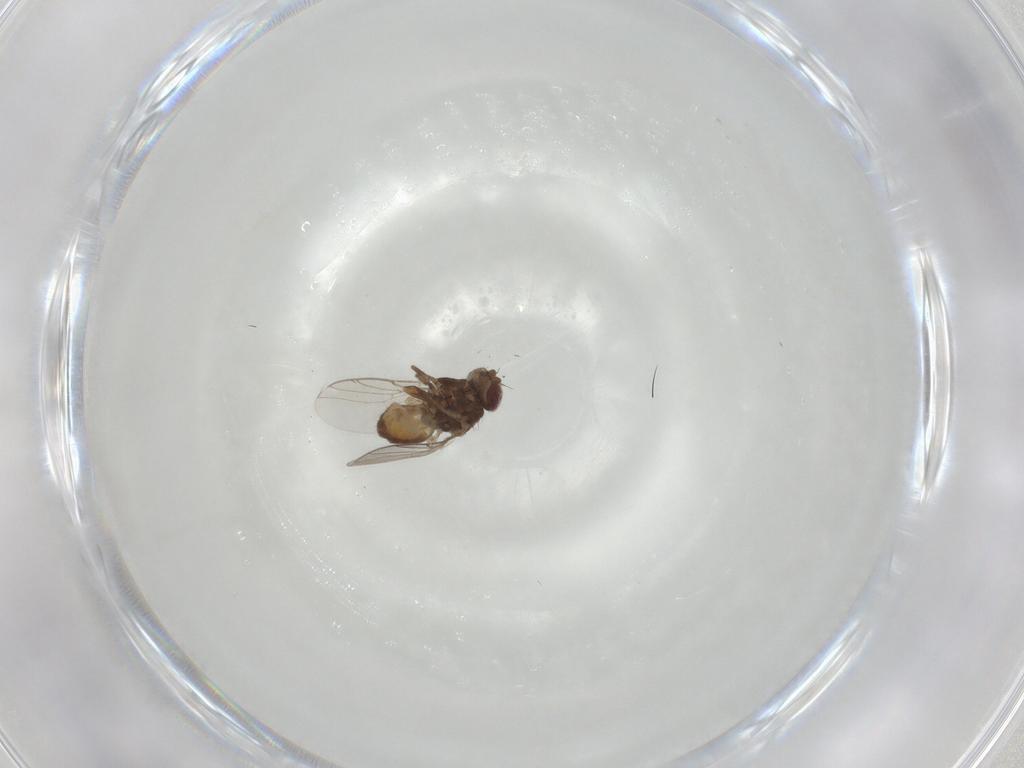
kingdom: Animalia
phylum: Arthropoda
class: Insecta
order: Diptera
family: Chloropidae
